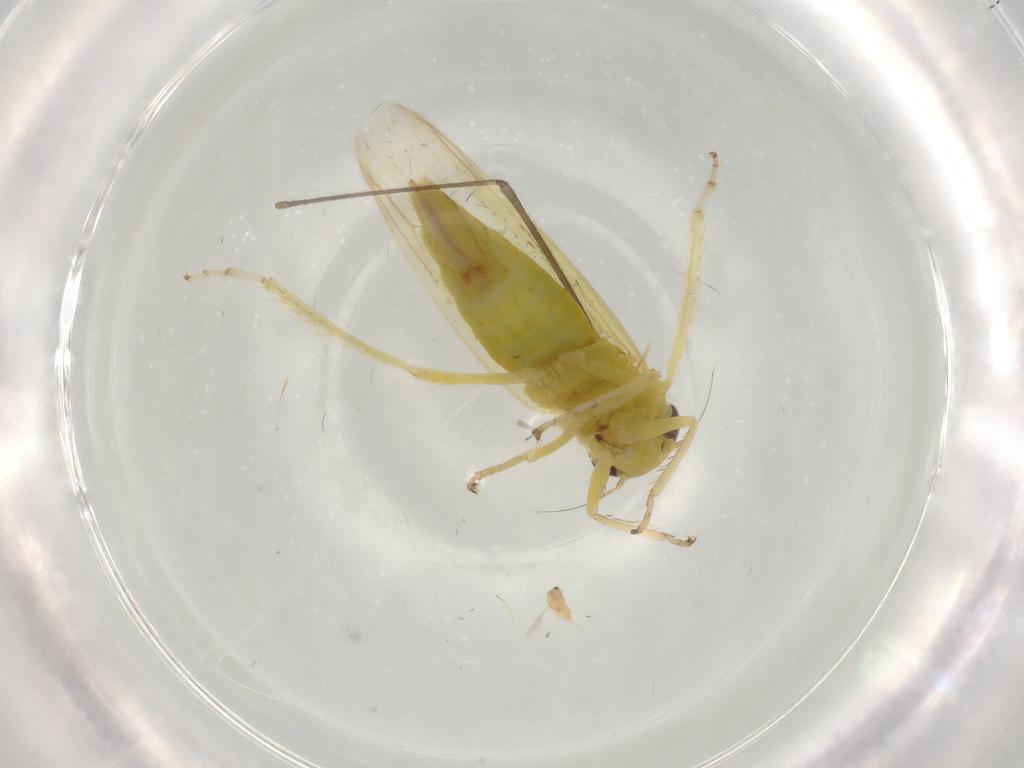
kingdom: Animalia
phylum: Arthropoda
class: Insecta
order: Hemiptera
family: Cicadellidae
